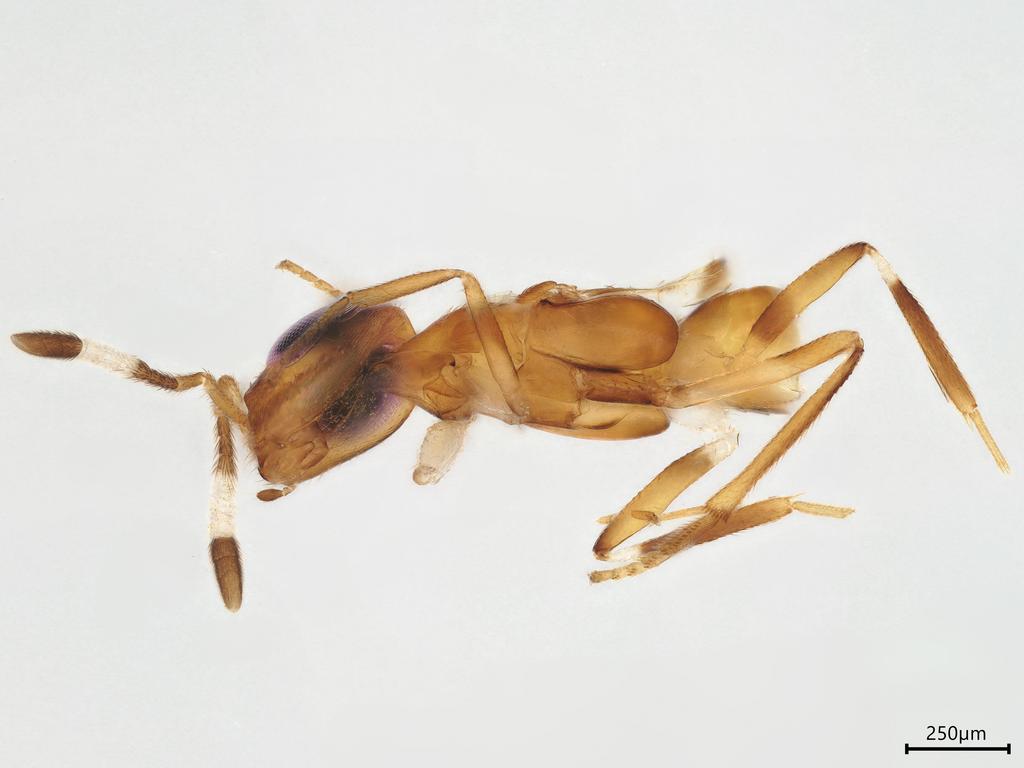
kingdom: Animalia
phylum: Arthropoda
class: Insecta
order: Hymenoptera
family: Encyrtidae
